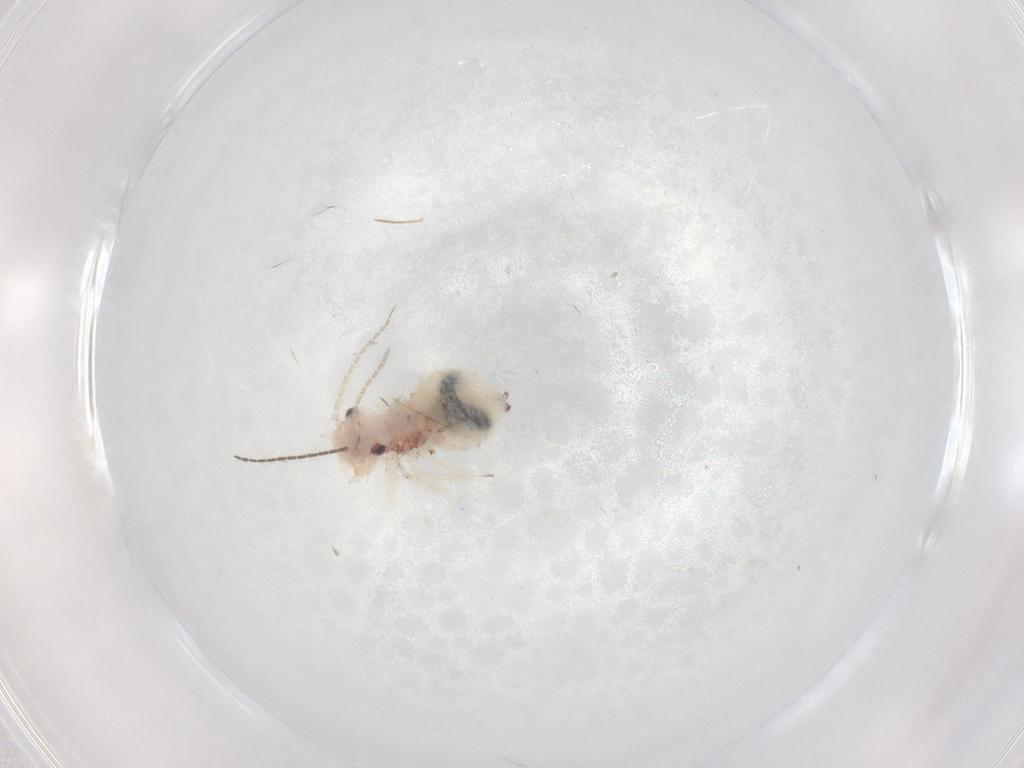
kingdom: Animalia
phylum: Arthropoda
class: Insecta
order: Psocodea
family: Amphipsocidae
